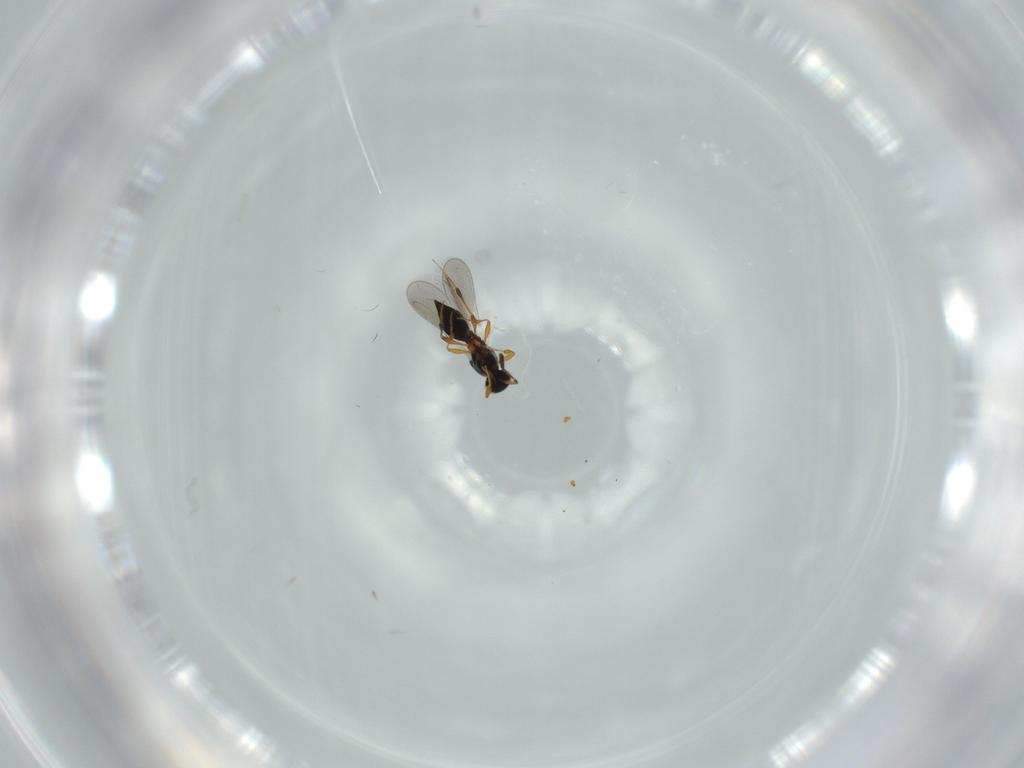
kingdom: Animalia
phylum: Arthropoda
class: Insecta
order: Hymenoptera
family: Platygastridae
